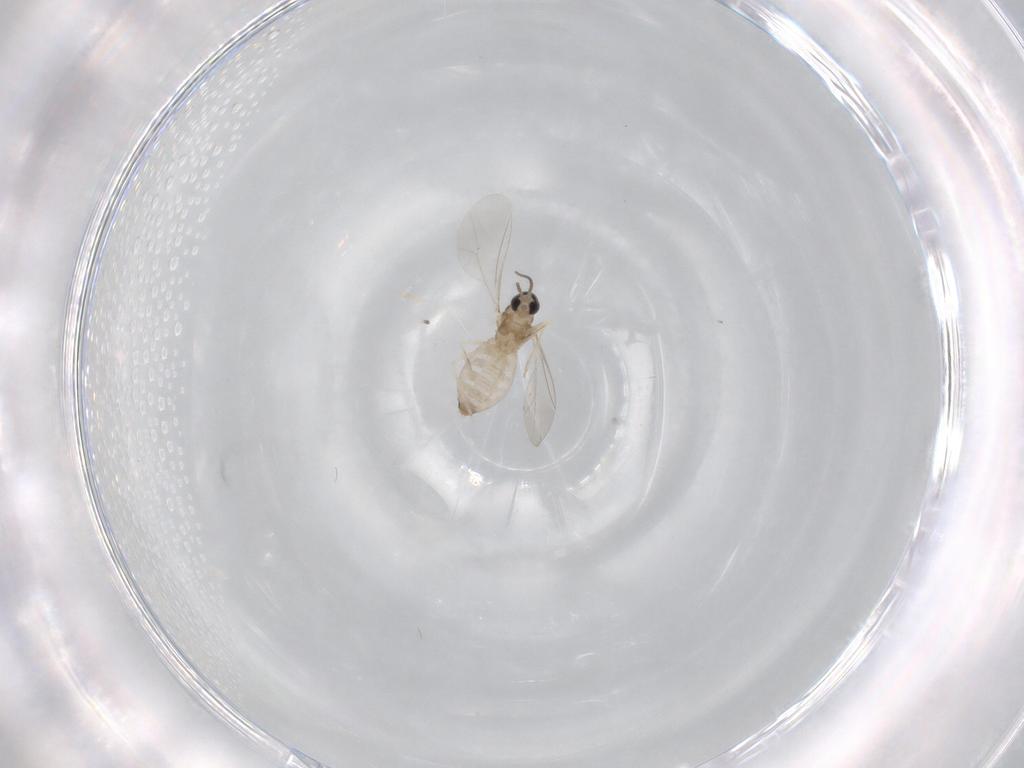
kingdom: Animalia
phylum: Arthropoda
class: Insecta
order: Diptera
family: Cecidomyiidae
